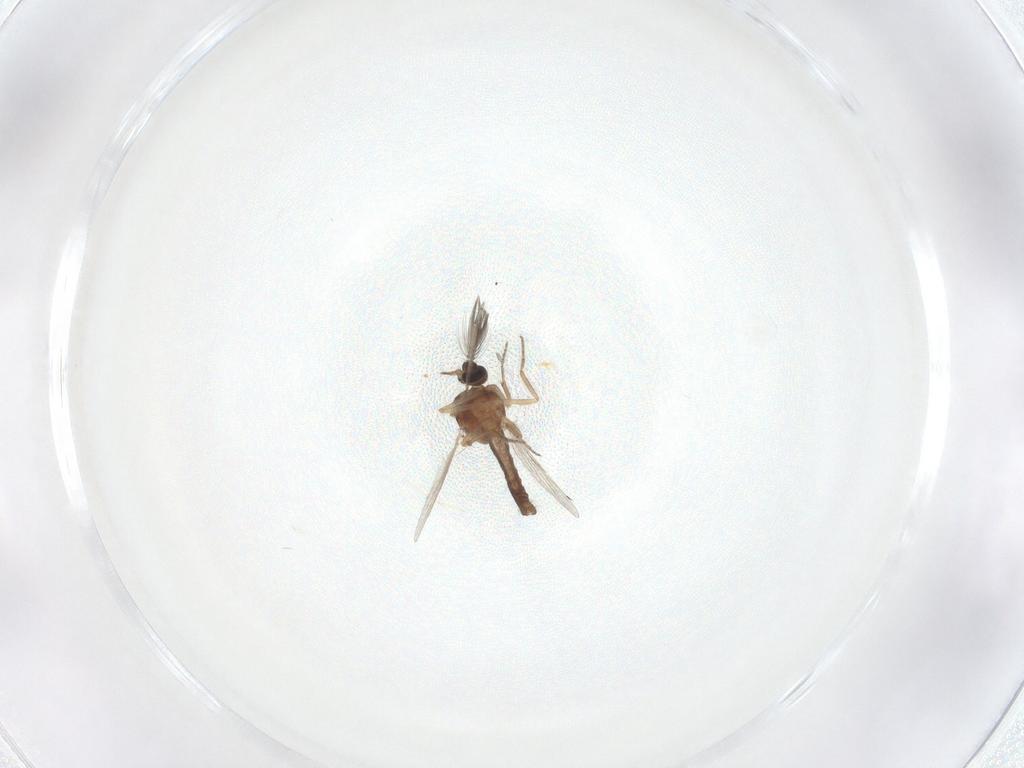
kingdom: Animalia
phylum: Arthropoda
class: Insecta
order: Diptera
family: Ceratopogonidae
